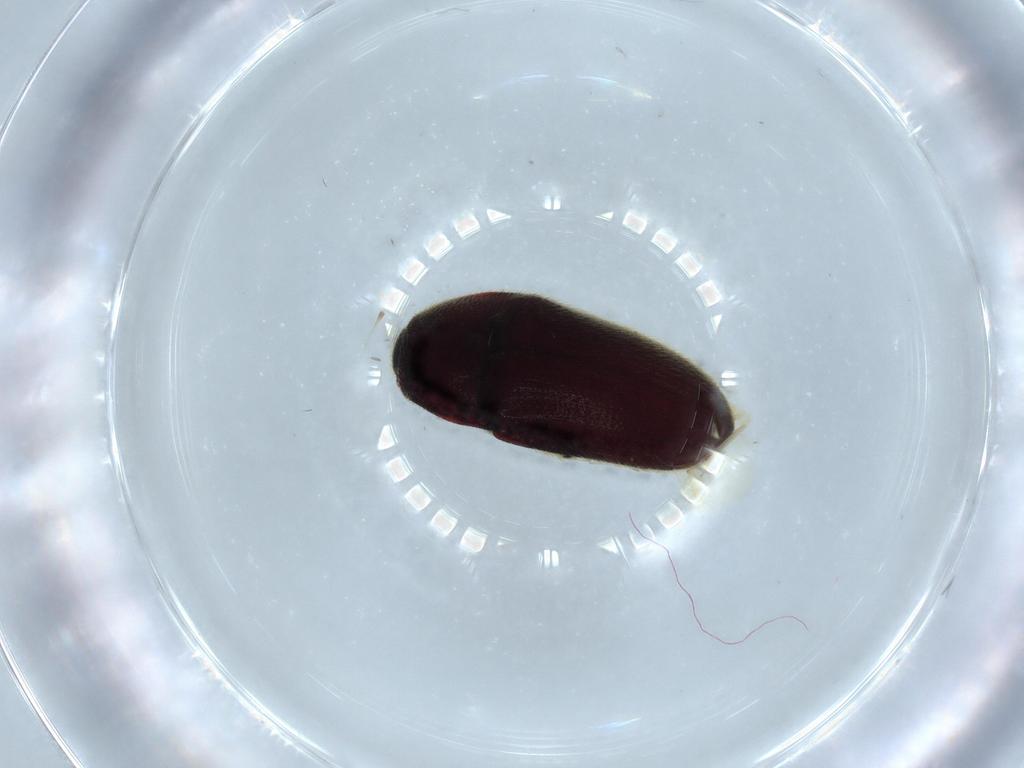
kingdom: Animalia
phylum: Arthropoda
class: Insecta
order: Coleoptera
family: Throscidae
